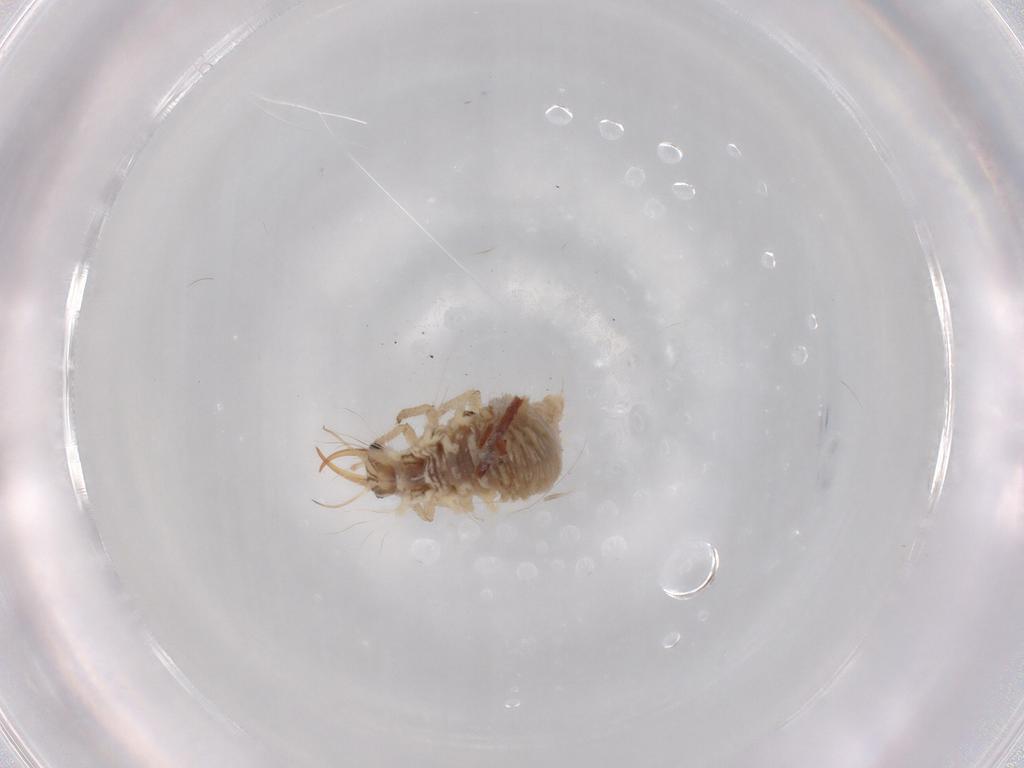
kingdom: Animalia
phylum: Arthropoda
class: Insecta
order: Neuroptera
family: Chrysopidae
